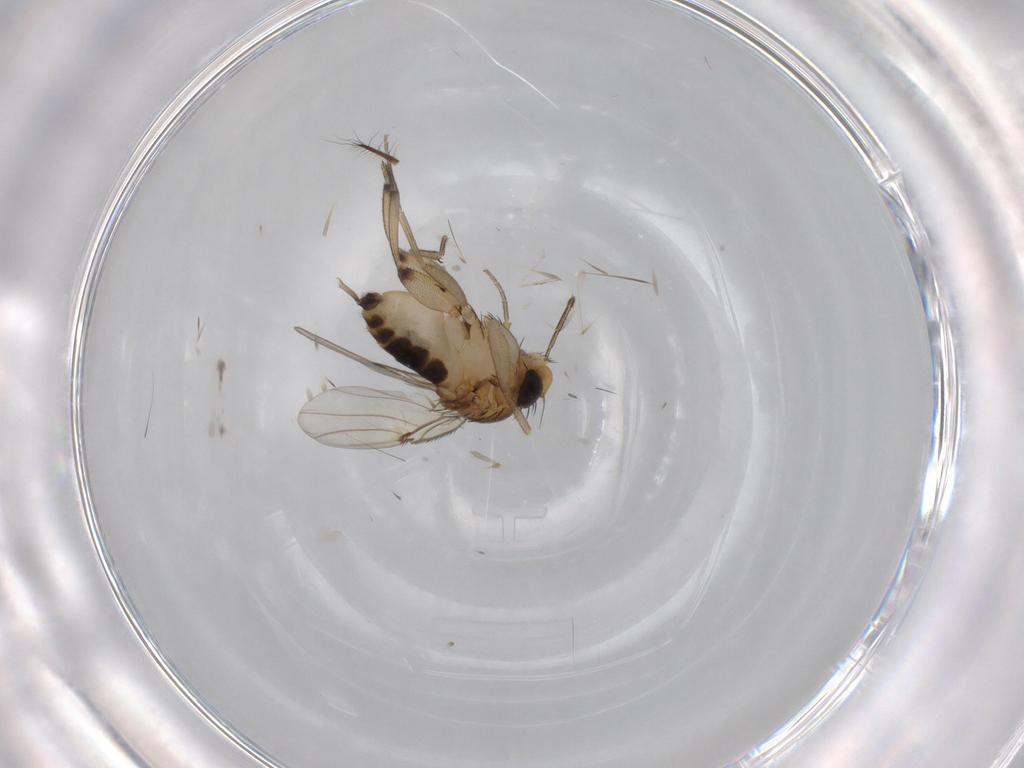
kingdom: Animalia
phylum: Arthropoda
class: Insecta
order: Diptera
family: Dolichopodidae
